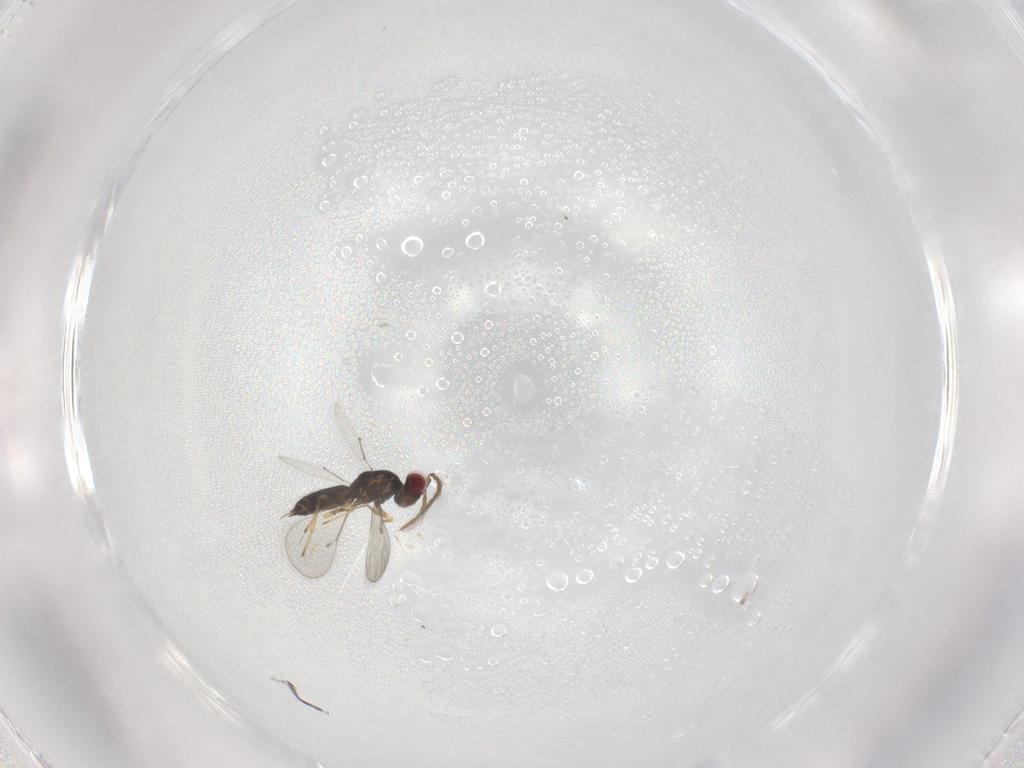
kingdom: Animalia
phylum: Arthropoda
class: Insecta
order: Hymenoptera
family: Eulophidae
